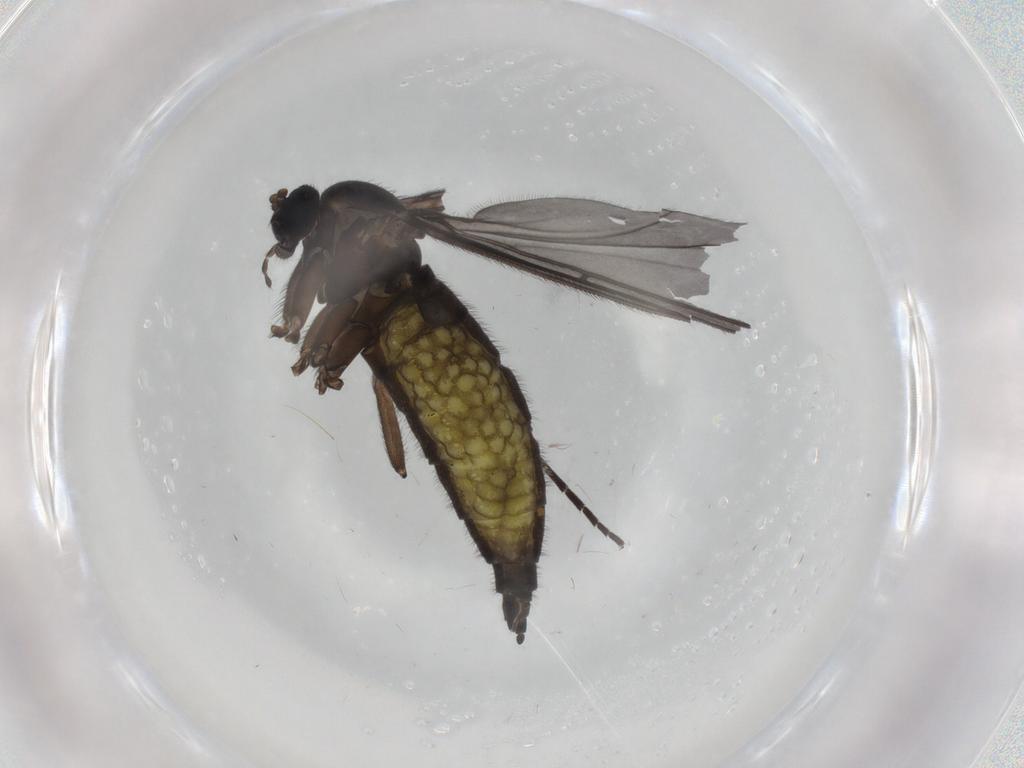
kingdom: Animalia
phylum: Arthropoda
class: Insecta
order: Diptera
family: Sciaridae
